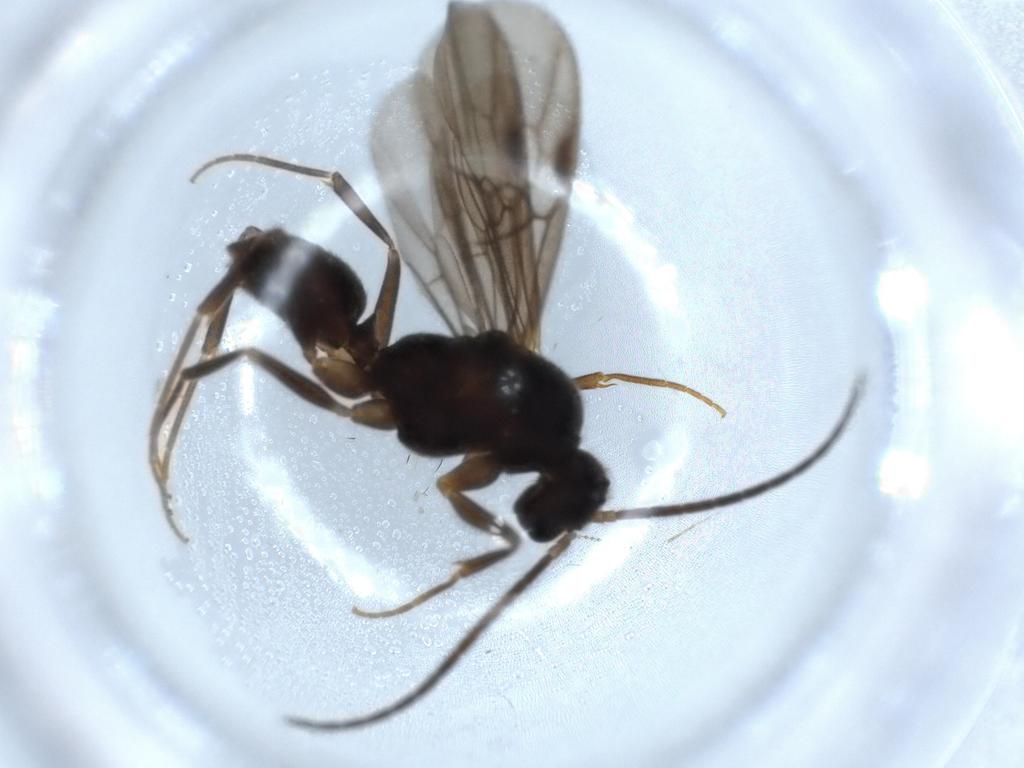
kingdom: Animalia
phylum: Arthropoda
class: Insecta
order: Hymenoptera
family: Formicidae
